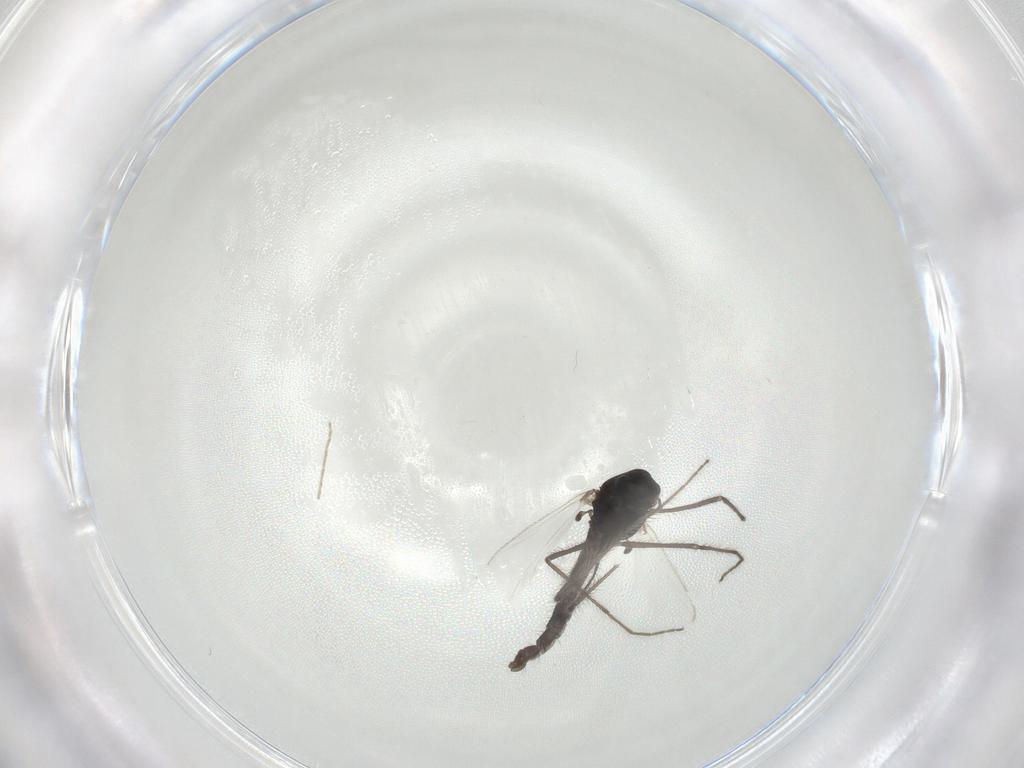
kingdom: Animalia
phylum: Arthropoda
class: Insecta
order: Diptera
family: Chironomidae
